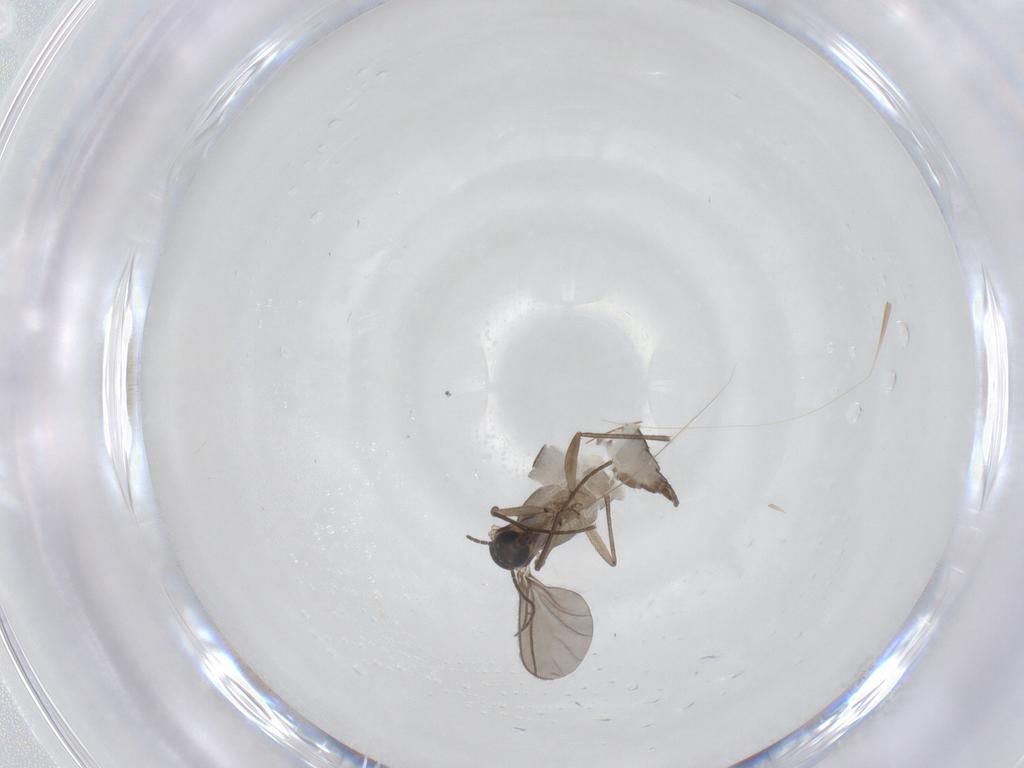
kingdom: Animalia
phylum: Arthropoda
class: Insecta
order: Diptera
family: Sciaridae
